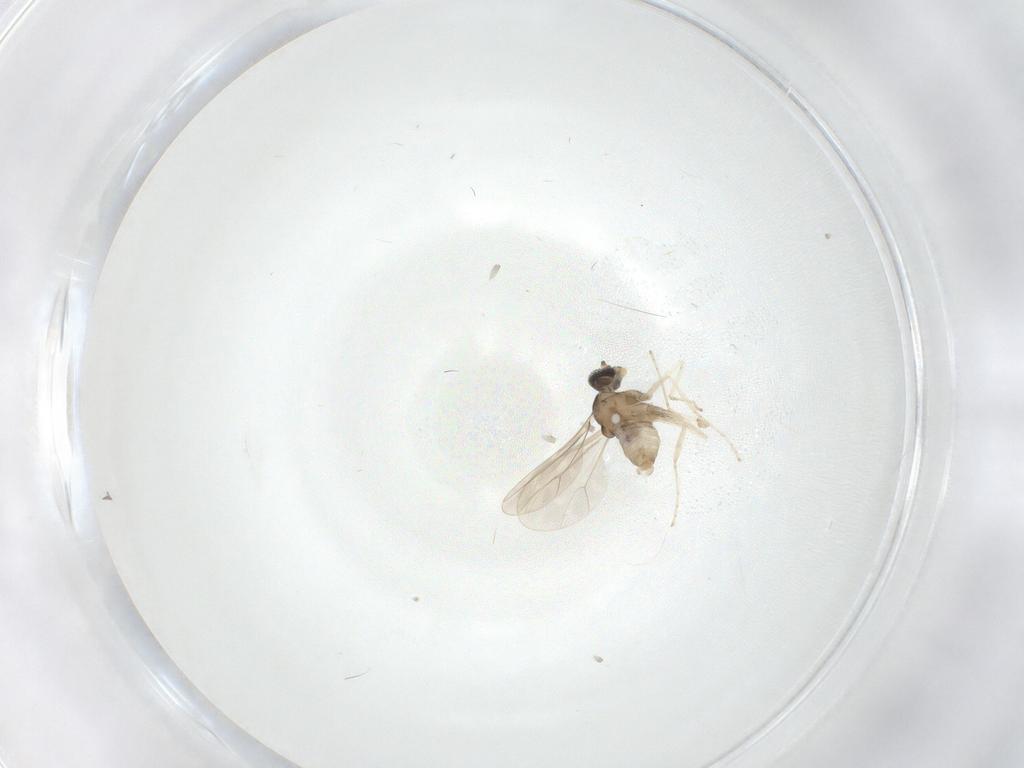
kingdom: Animalia
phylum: Arthropoda
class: Insecta
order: Diptera
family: Cecidomyiidae
